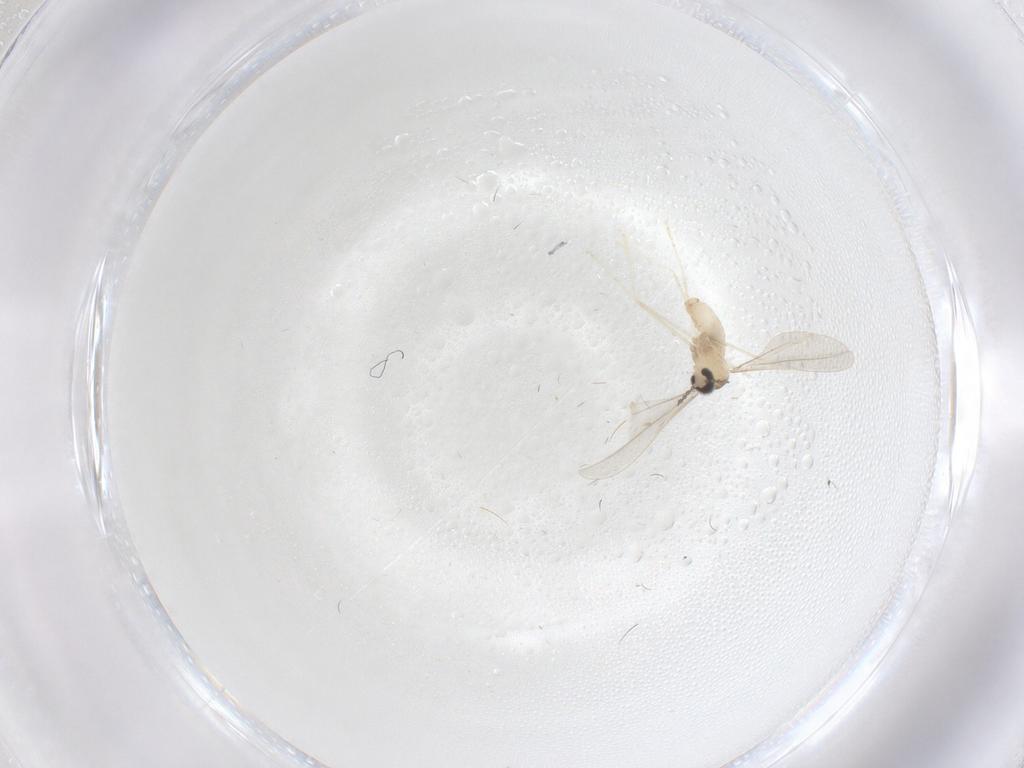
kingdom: Animalia
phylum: Arthropoda
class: Insecta
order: Diptera
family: Cecidomyiidae
